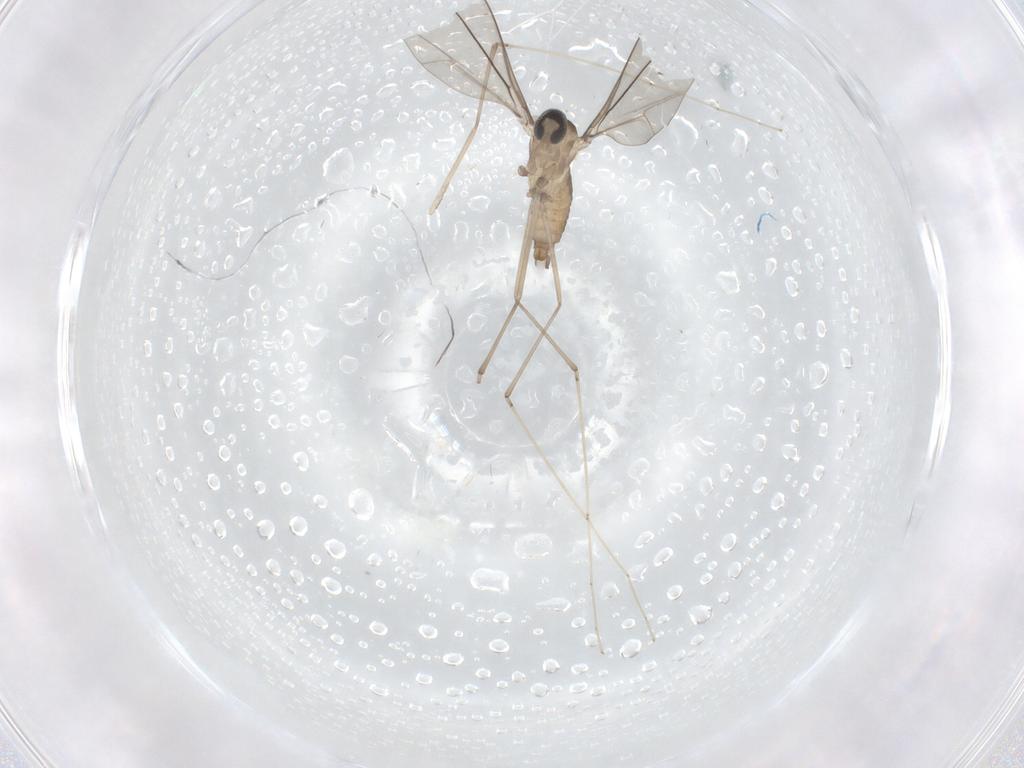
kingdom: Animalia
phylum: Arthropoda
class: Insecta
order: Diptera
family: Cecidomyiidae
